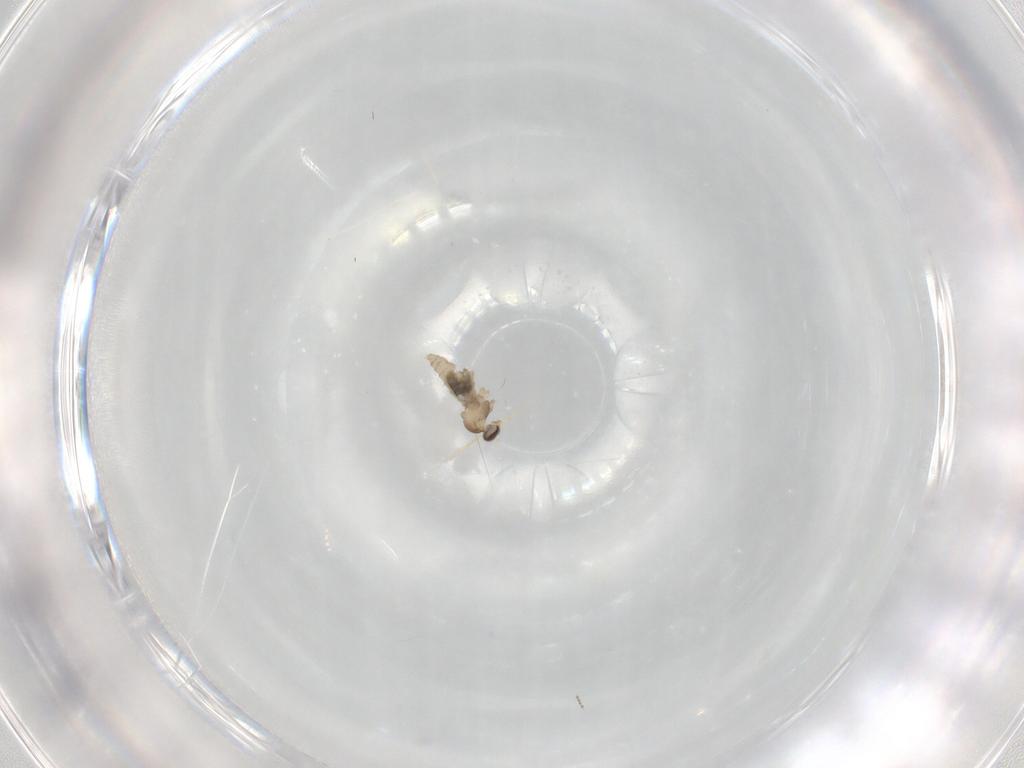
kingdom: Animalia
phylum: Arthropoda
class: Insecta
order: Diptera
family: Cecidomyiidae
